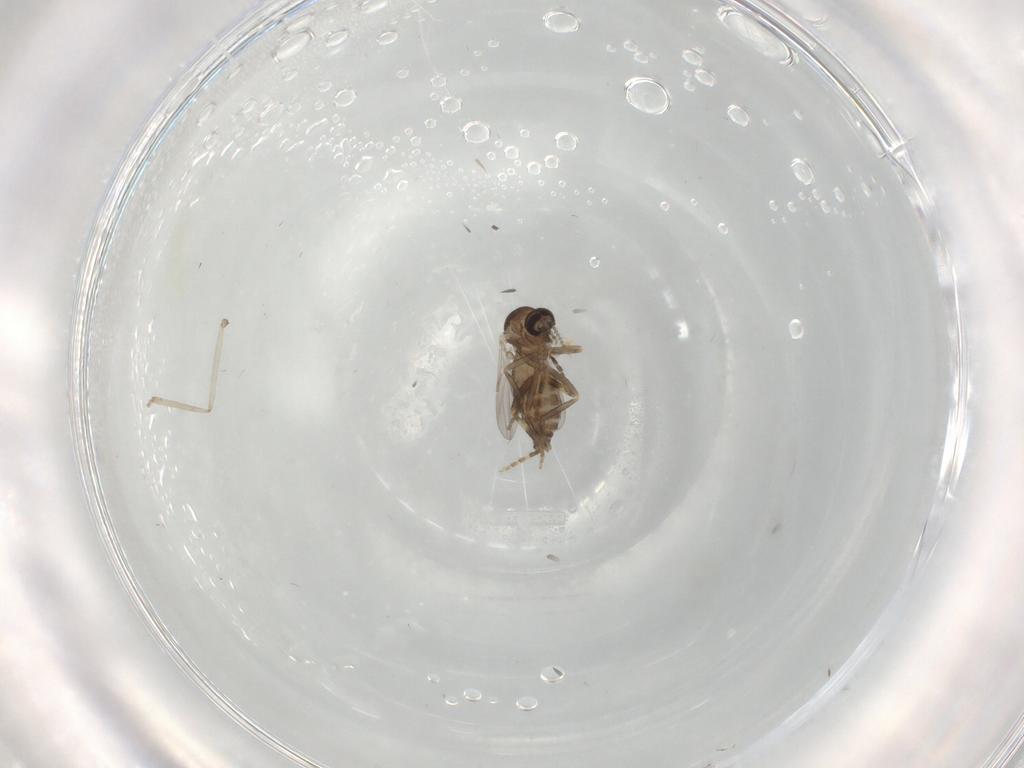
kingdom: Animalia
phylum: Arthropoda
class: Insecta
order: Diptera
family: Ceratopogonidae
